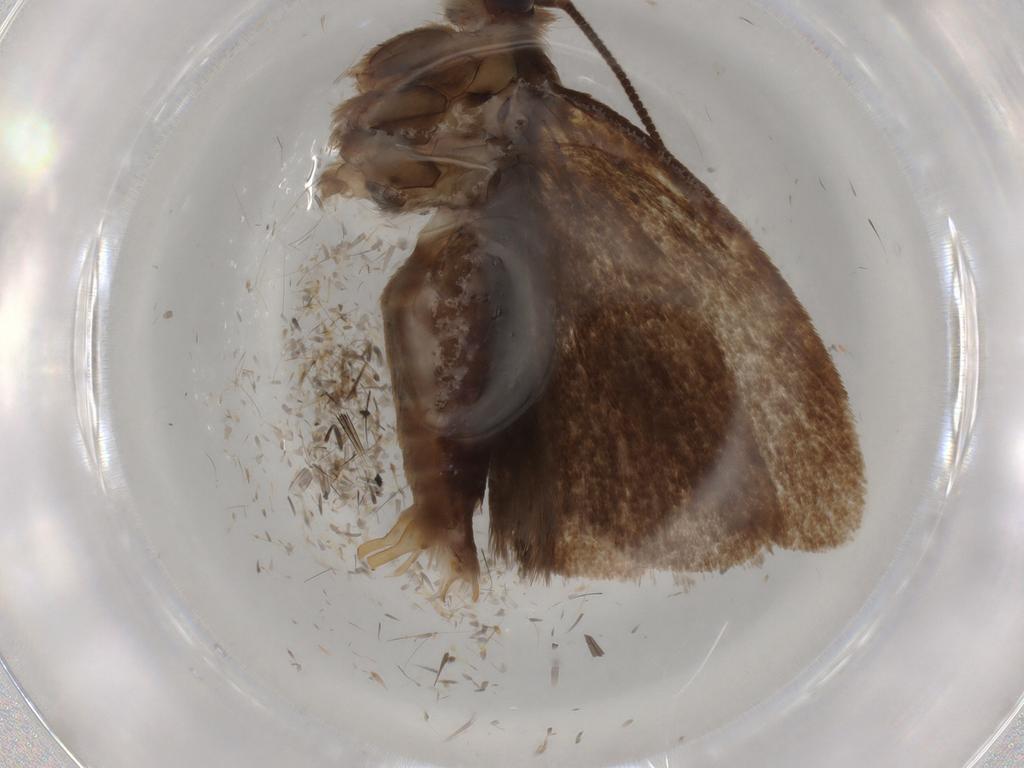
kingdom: Animalia
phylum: Arthropoda
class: Insecta
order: Lepidoptera
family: Tineidae
